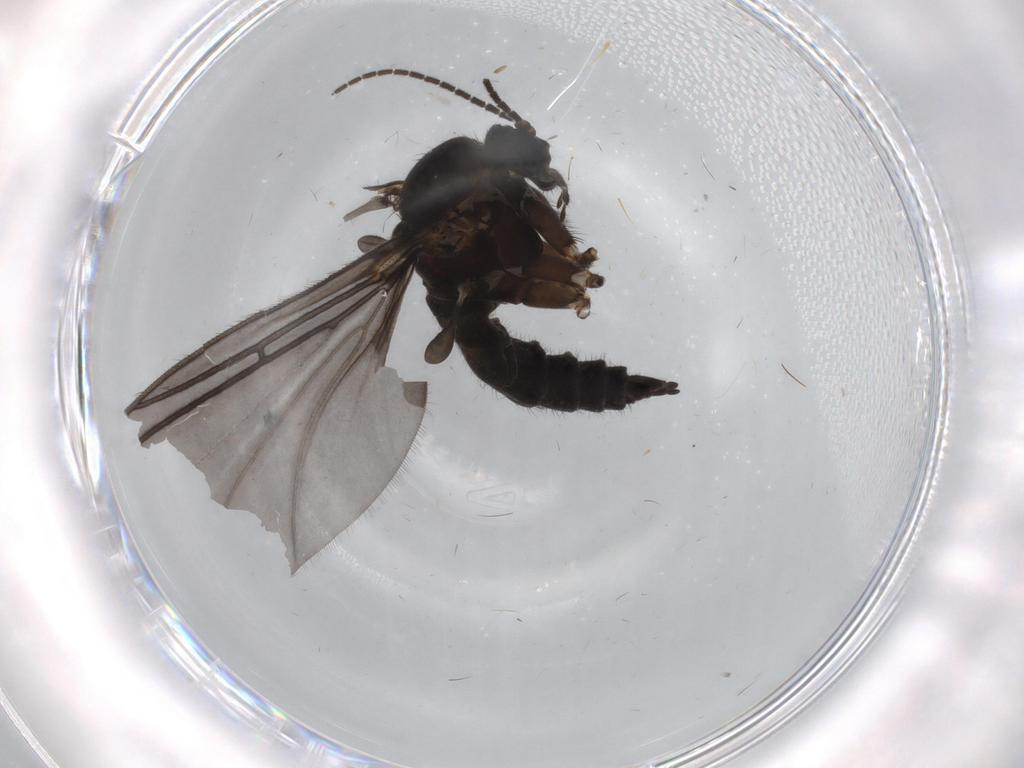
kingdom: Animalia
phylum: Arthropoda
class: Insecta
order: Diptera
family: Sciaridae
